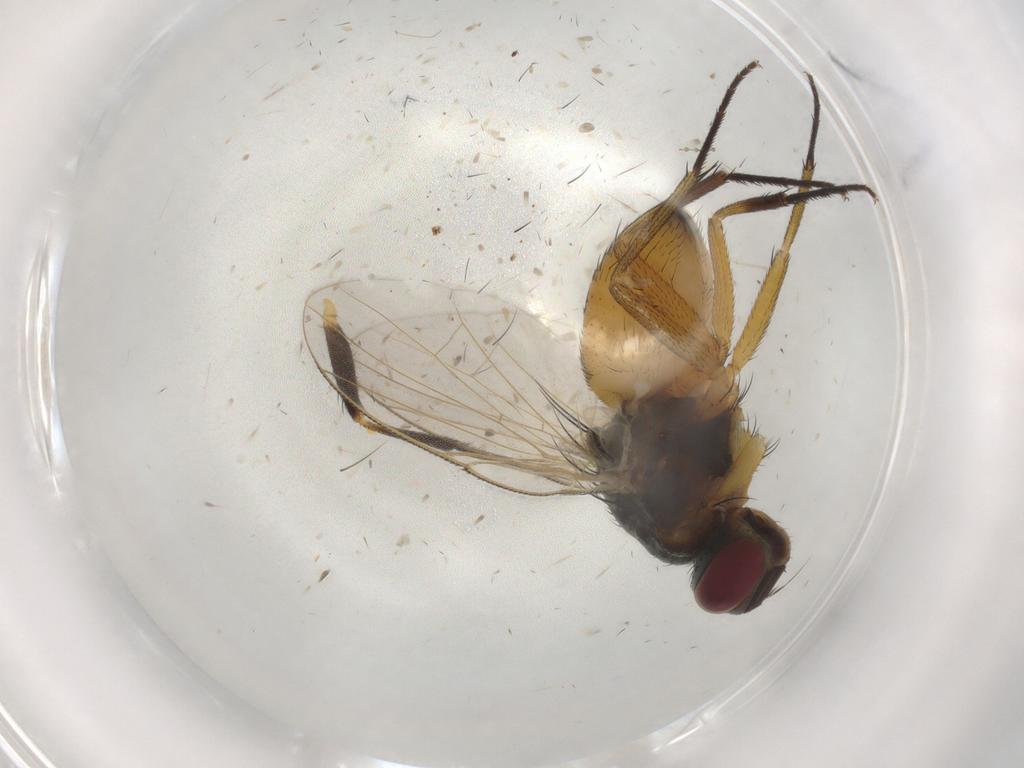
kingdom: Animalia
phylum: Arthropoda
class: Insecta
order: Diptera
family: Muscidae
